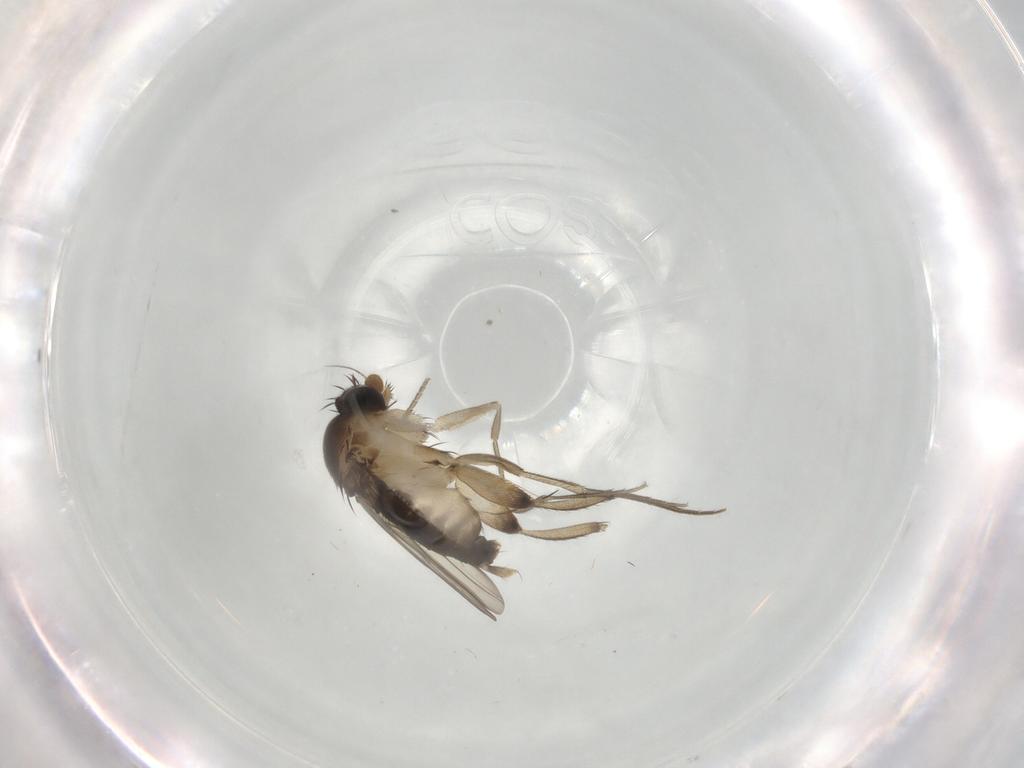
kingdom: Animalia
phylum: Arthropoda
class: Insecta
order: Diptera
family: Phoridae
